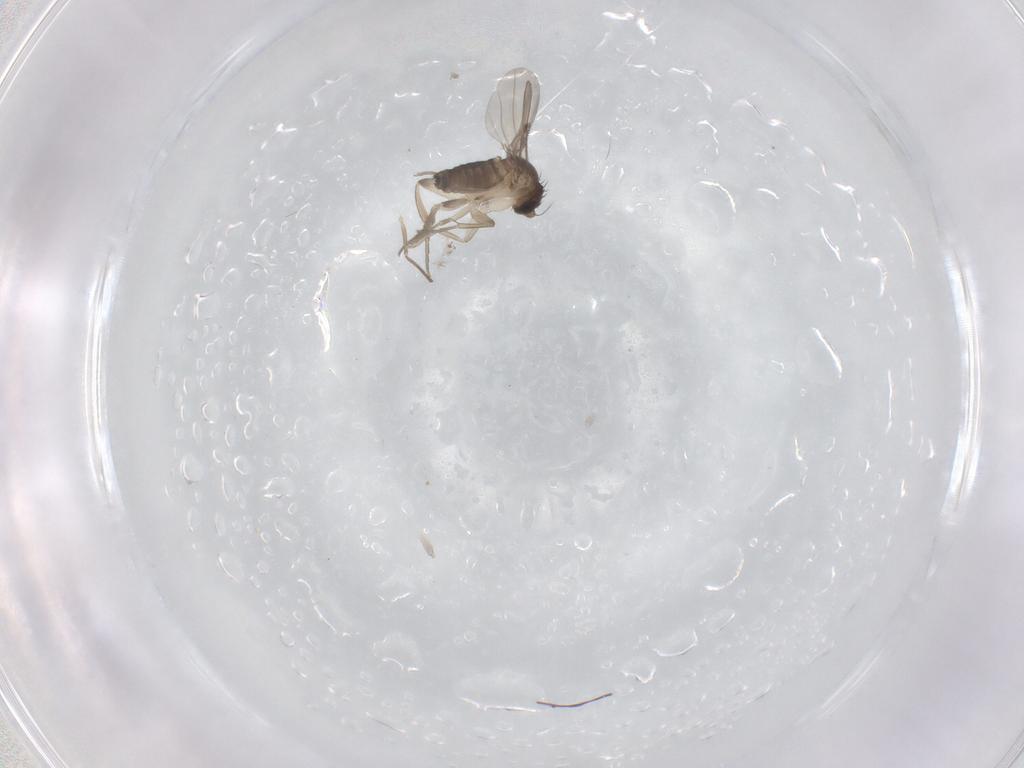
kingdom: Animalia
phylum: Arthropoda
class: Insecta
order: Diptera
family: Phoridae
